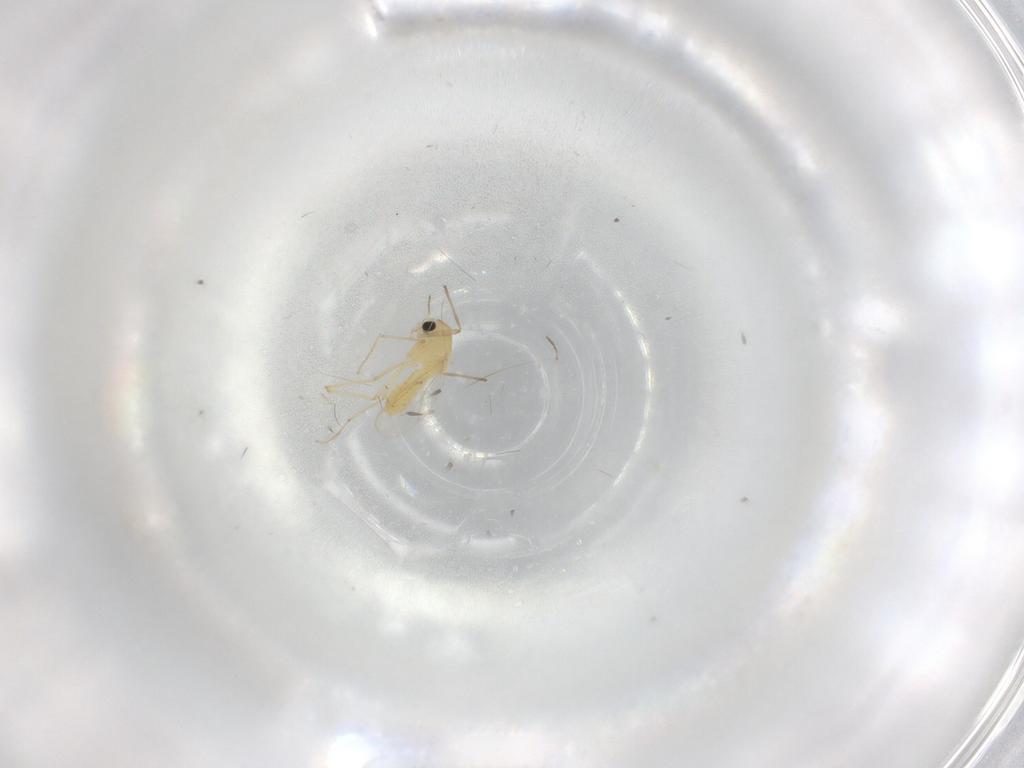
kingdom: Animalia
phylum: Arthropoda
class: Insecta
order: Diptera
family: Chironomidae
